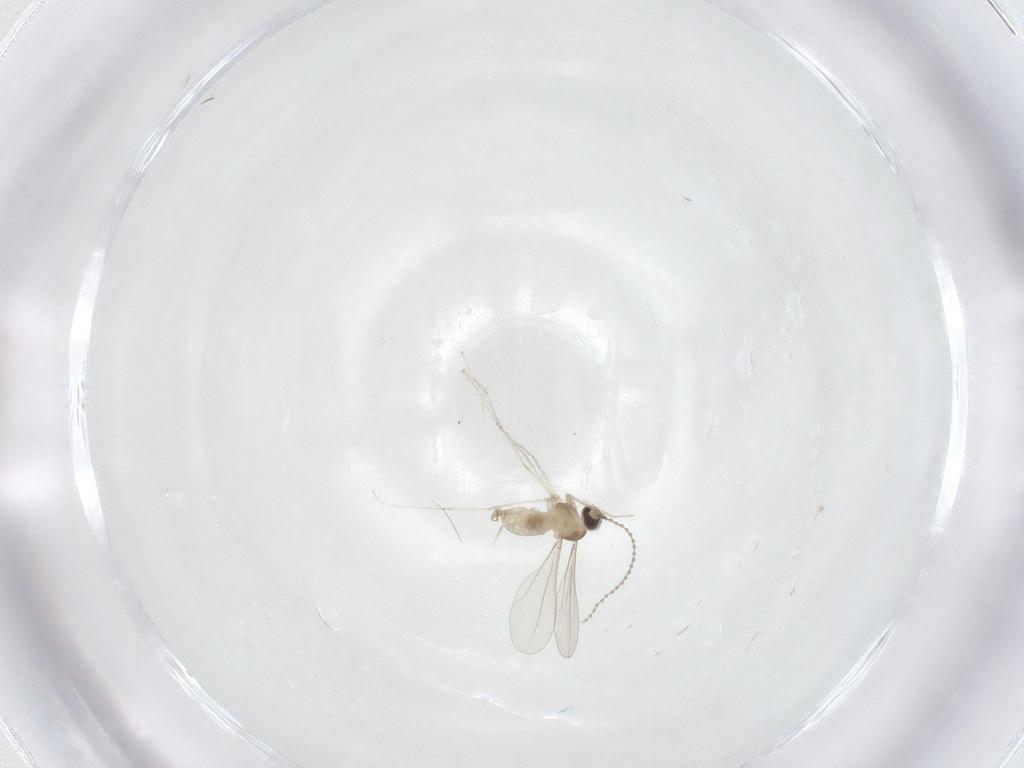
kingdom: Animalia
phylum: Arthropoda
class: Insecta
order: Diptera
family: Cecidomyiidae
